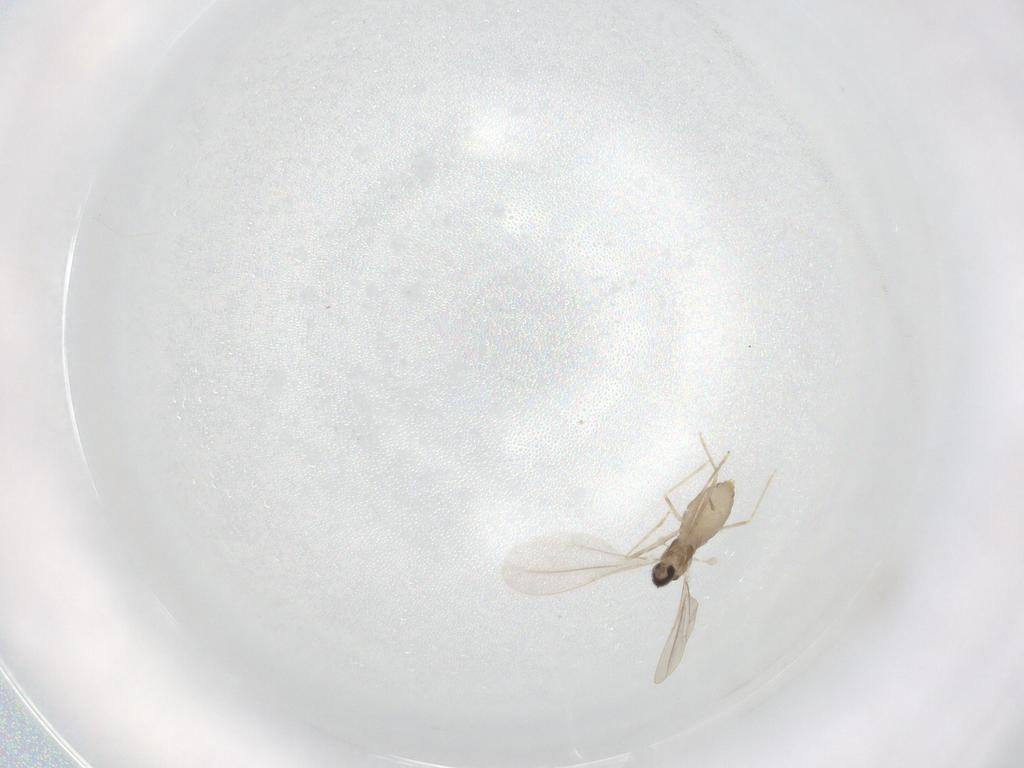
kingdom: Animalia
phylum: Arthropoda
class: Insecta
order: Diptera
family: Cecidomyiidae
